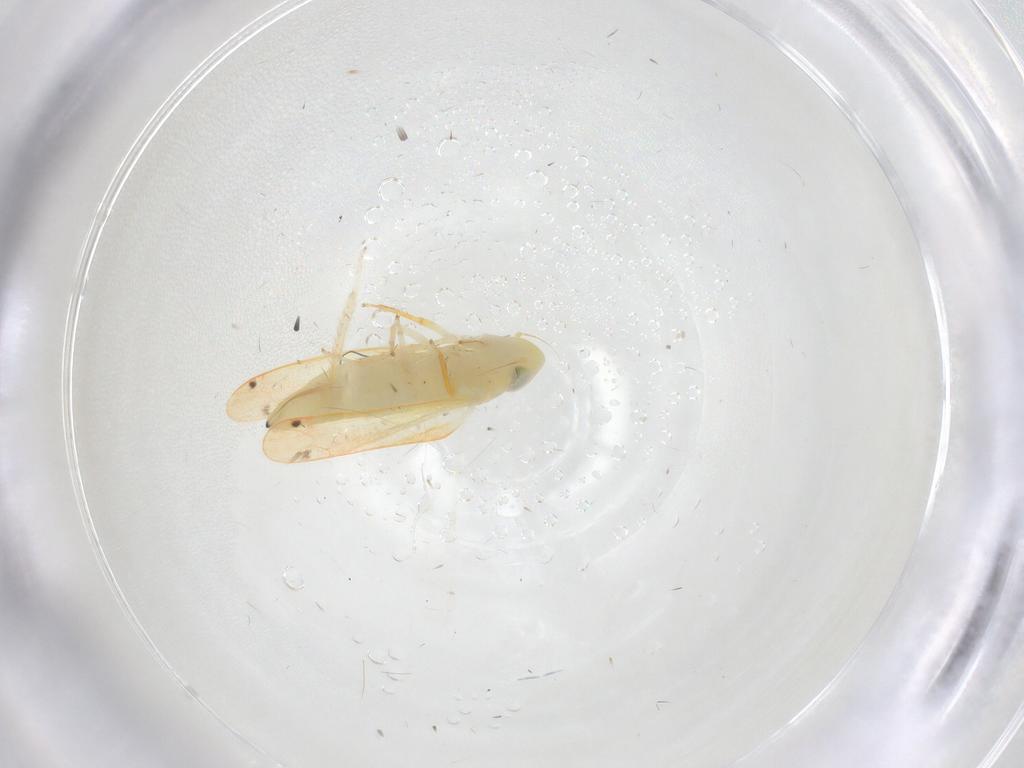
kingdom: Animalia
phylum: Arthropoda
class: Insecta
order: Hemiptera
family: Cicadellidae
